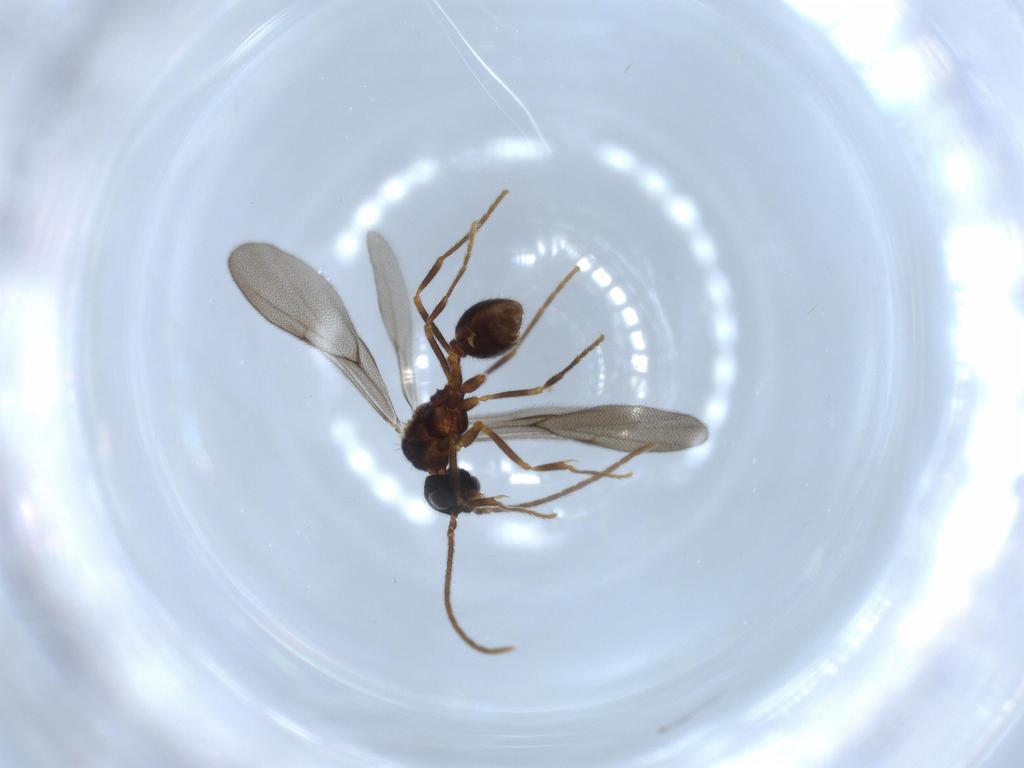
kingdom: Animalia
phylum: Arthropoda
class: Insecta
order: Hymenoptera
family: Formicidae
